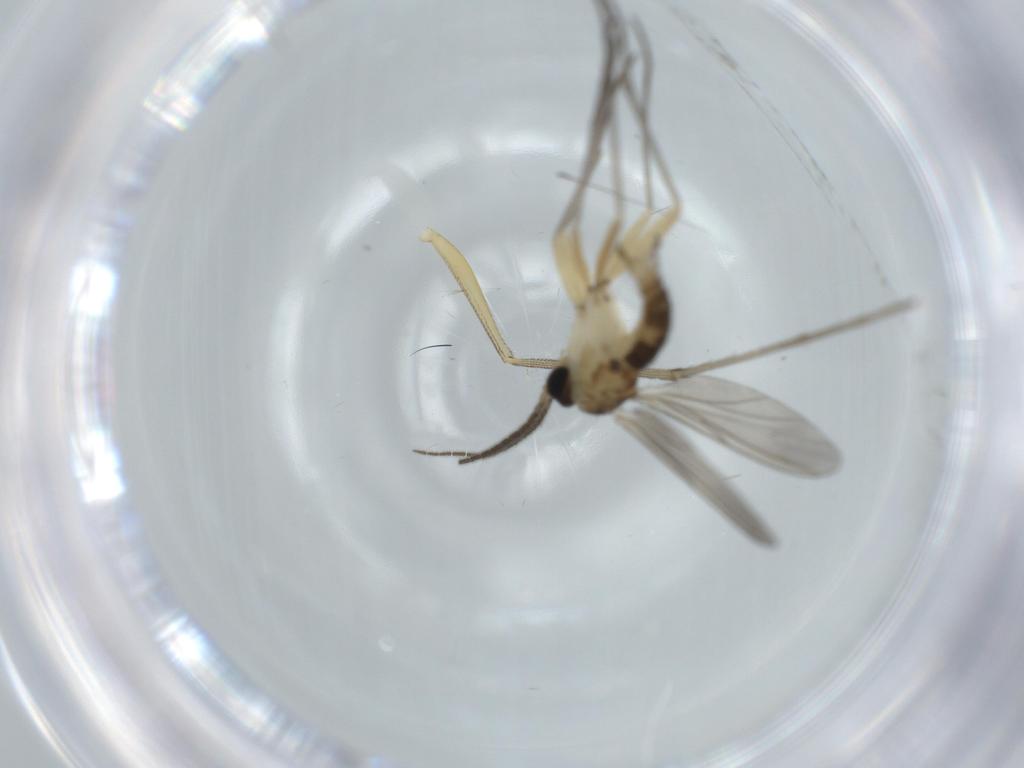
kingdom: Animalia
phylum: Arthropoda
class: Insecta
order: Diptera
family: Sciaridae
